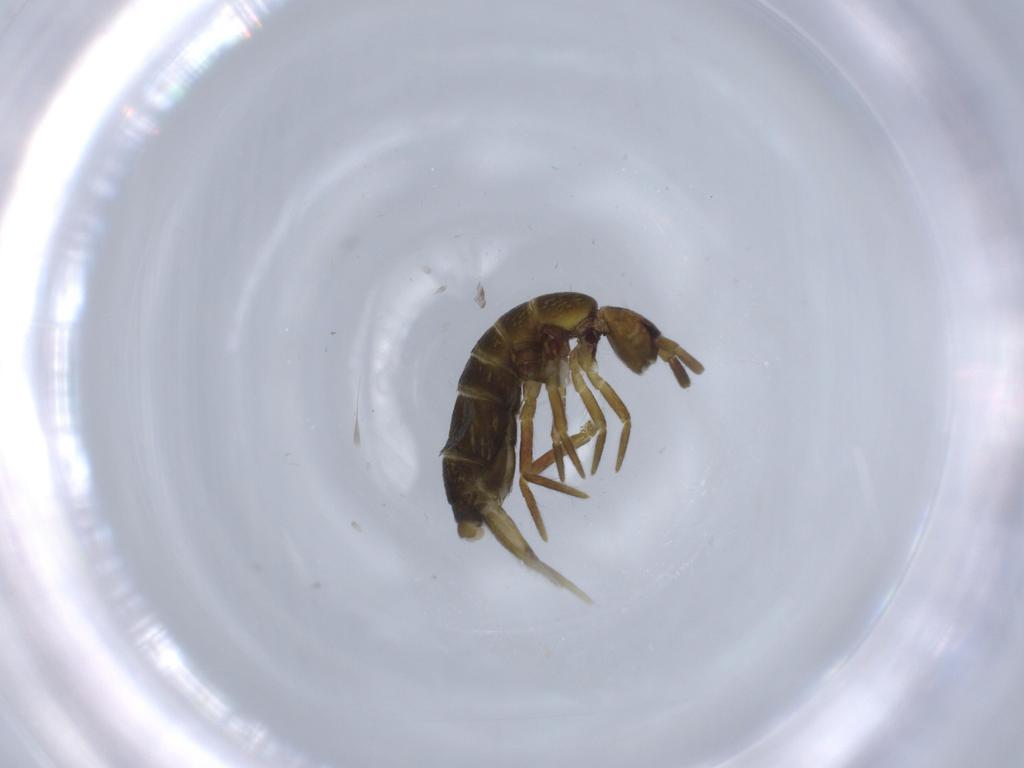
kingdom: Animalia
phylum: Arthropoda
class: Collembola
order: Entomobryomorpha
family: Tomoceridae
